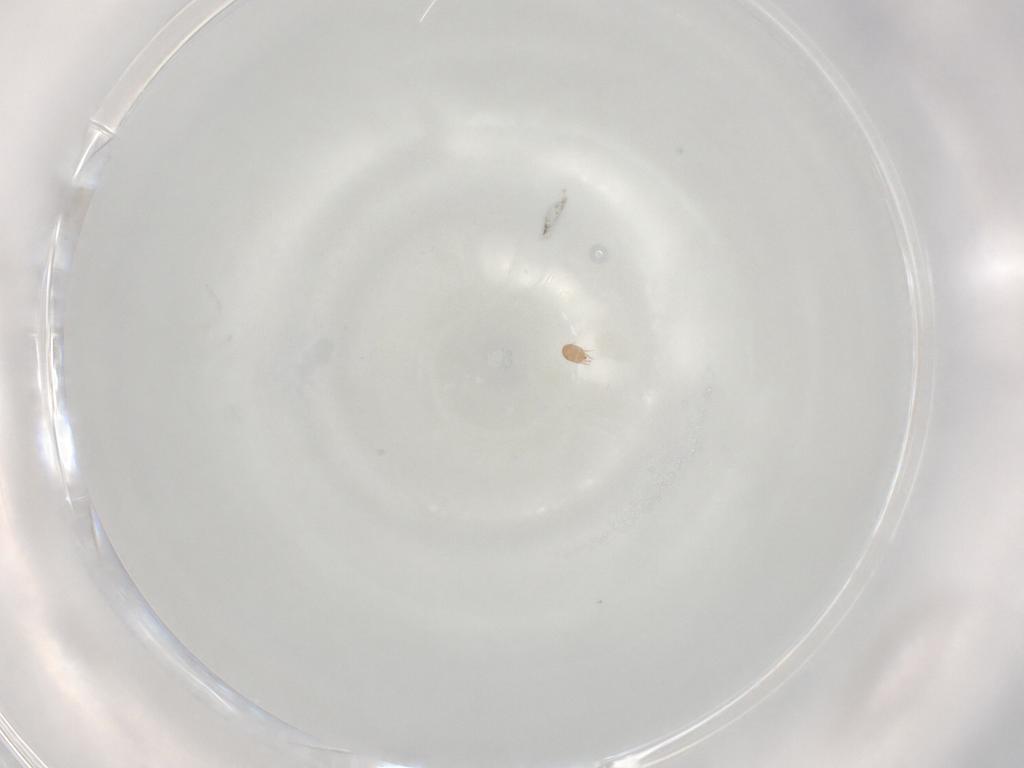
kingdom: Animalia
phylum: Arthropoda
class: Arachnida
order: Sarcoptiformes
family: Hemisarcoptidae
